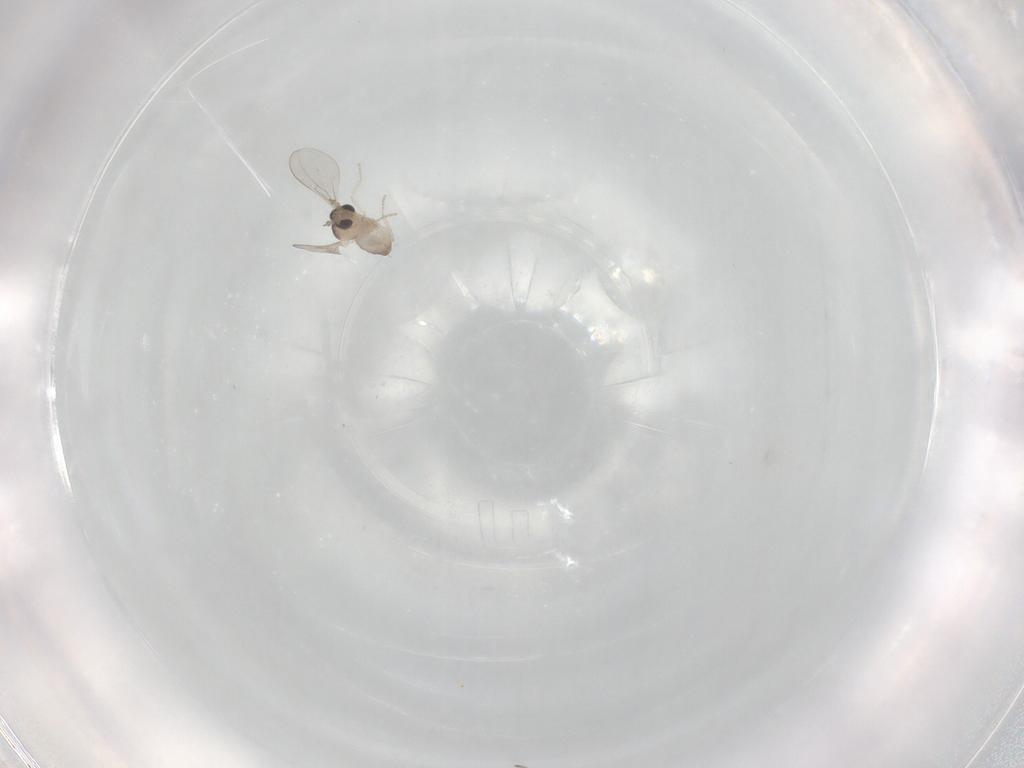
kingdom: Animalia
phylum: Arthropoda
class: Insecta
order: Diptera
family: Cecidomyiidae
